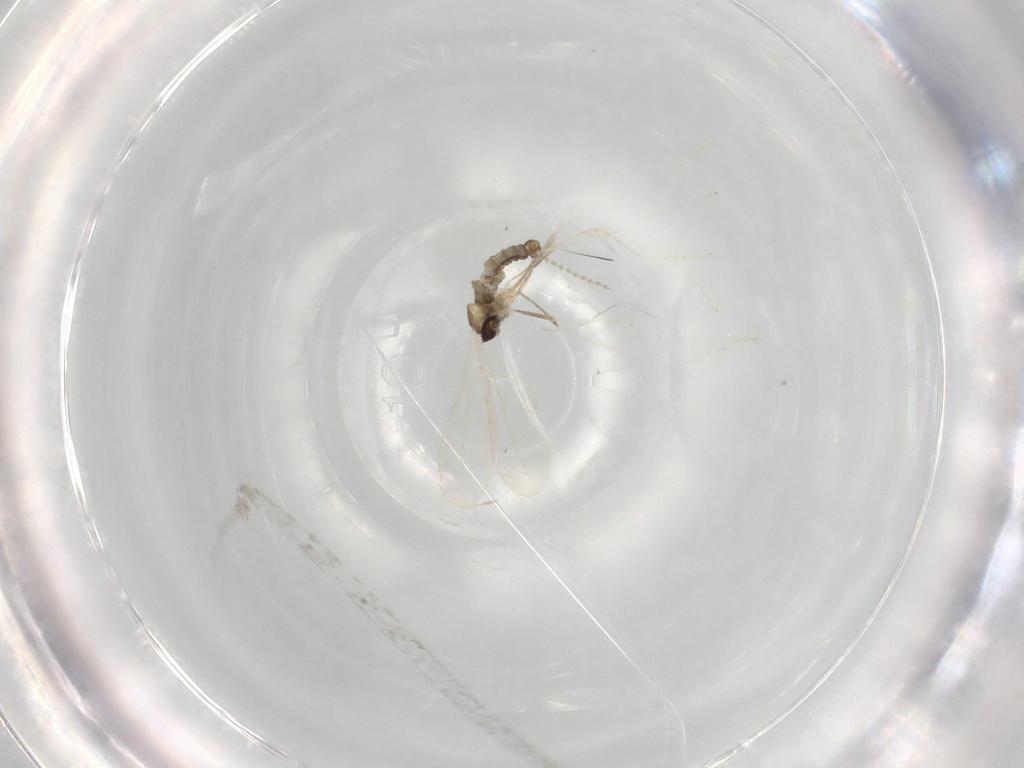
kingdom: Animalia
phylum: Arthropoda
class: Insecta
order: Diptera
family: Cecidomyiidae
